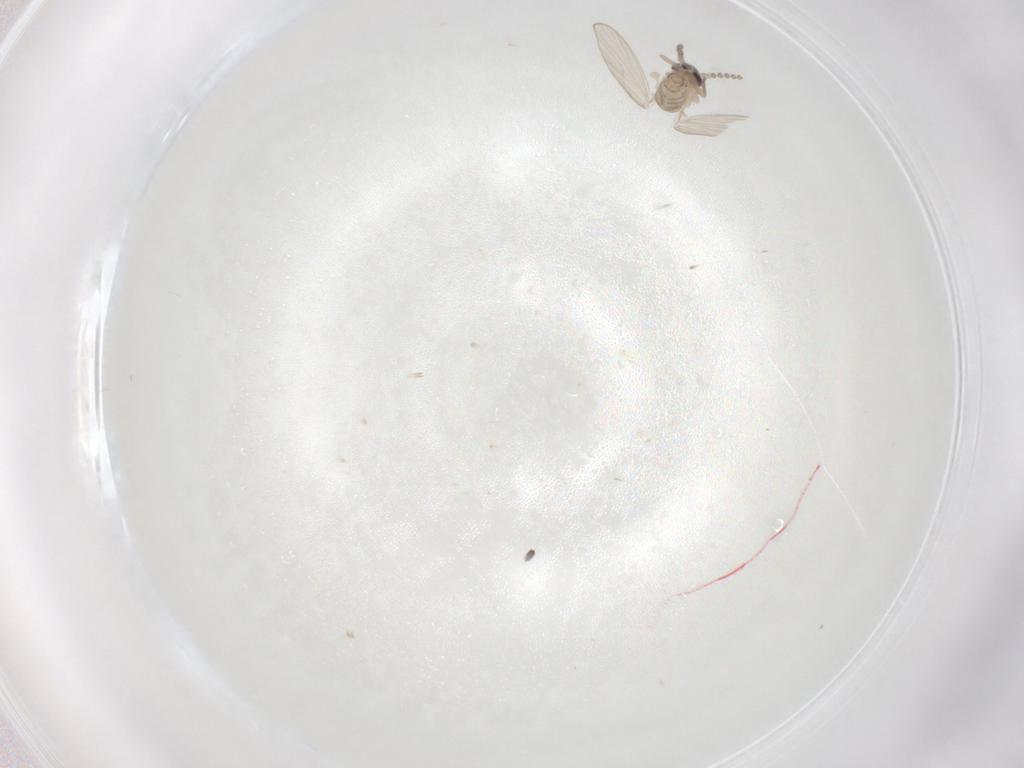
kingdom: Animalia
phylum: Arthropoda
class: Insecta
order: Diptera
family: Psychodidae
